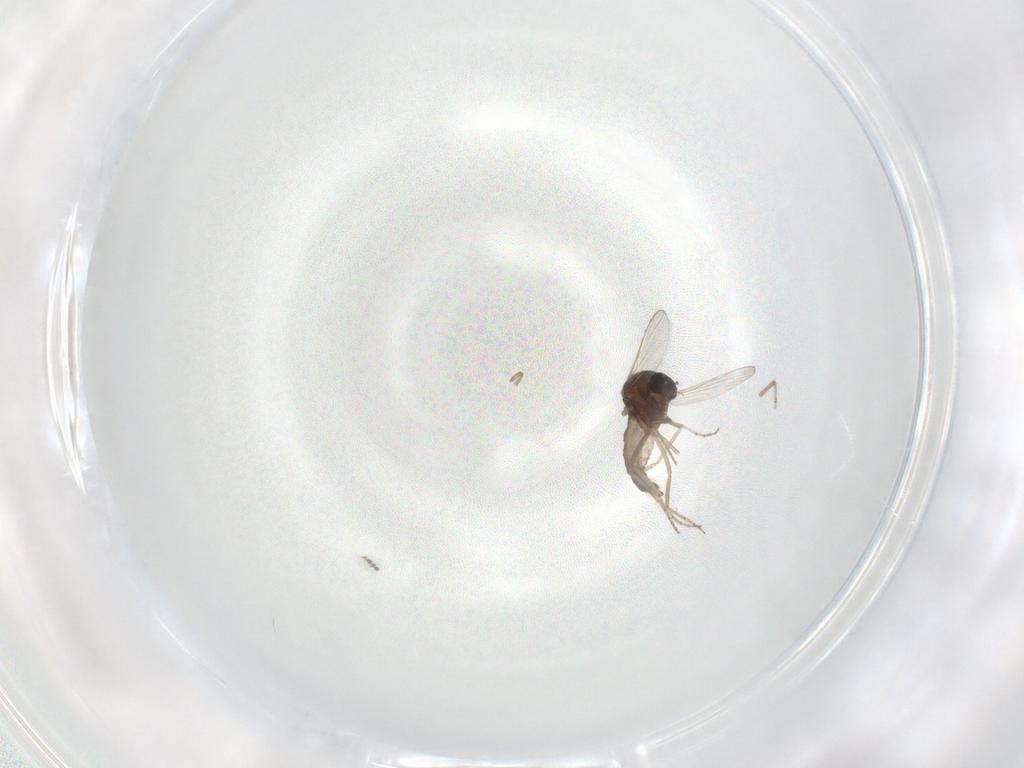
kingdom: Animalia
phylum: Arthropoda
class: Insecta
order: Diptera
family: Ceratopogonidae
